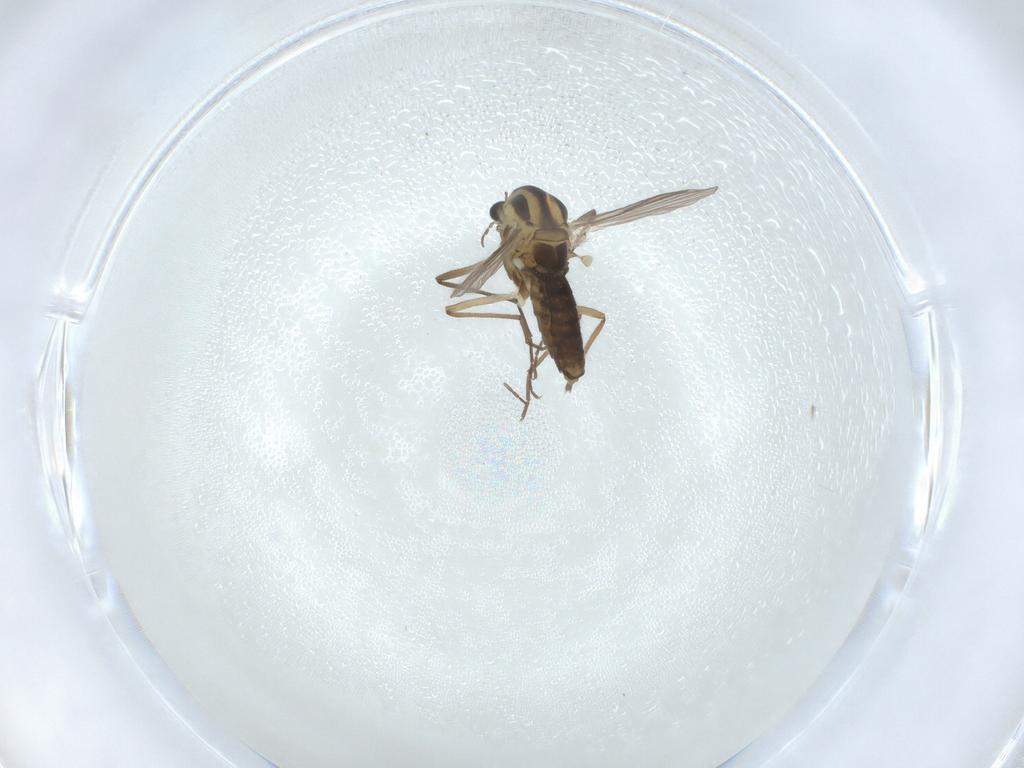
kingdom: Animalia
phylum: Arthropoda
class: Insecta
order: Diptera
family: Chironomidae
